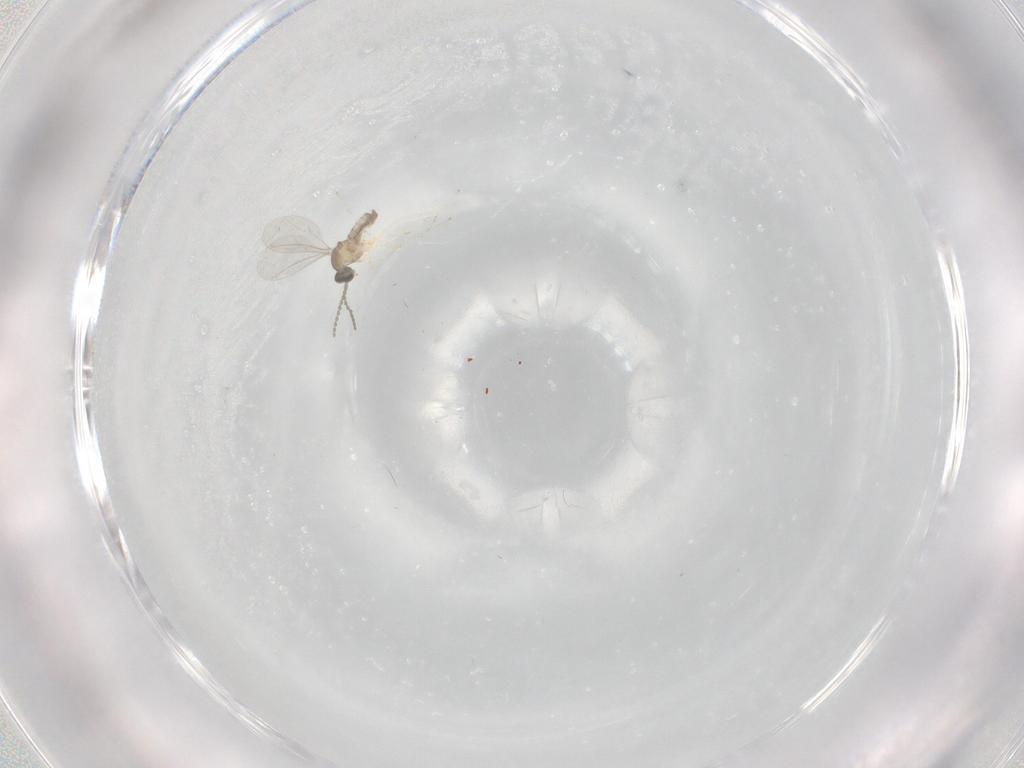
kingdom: Animalia
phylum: Arthropoda
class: Insecta
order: Diptera
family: Cecidomyiidae
